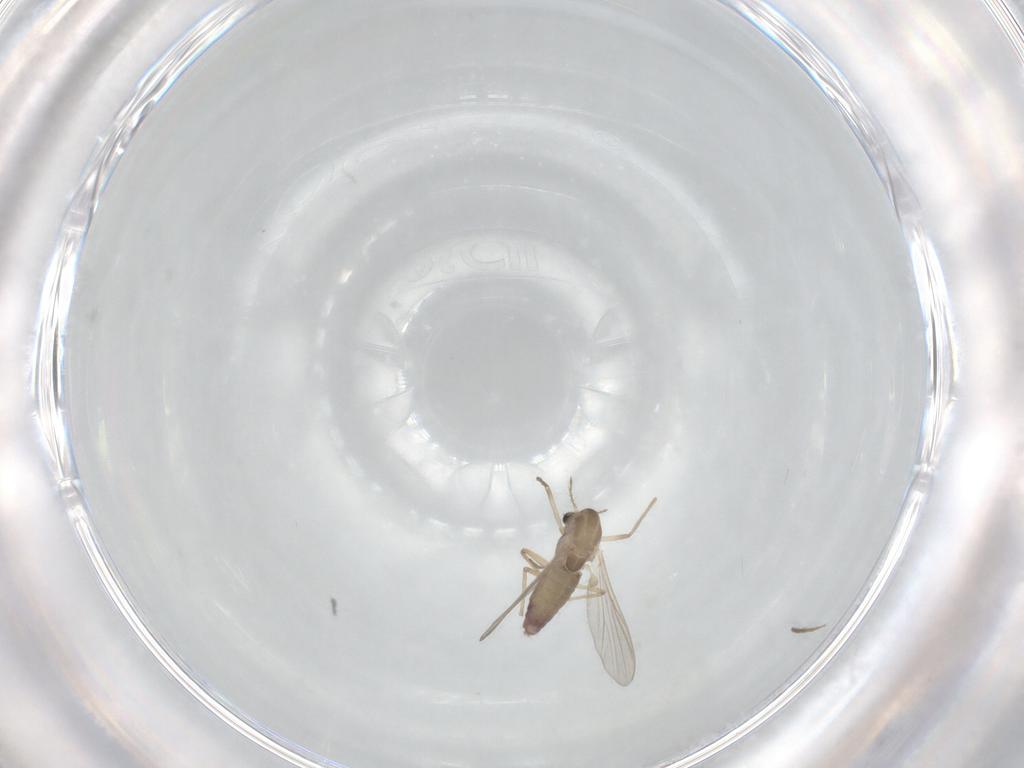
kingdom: Animalia
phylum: Arthropoda
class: Insecta
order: Diptera
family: Chironomidae
